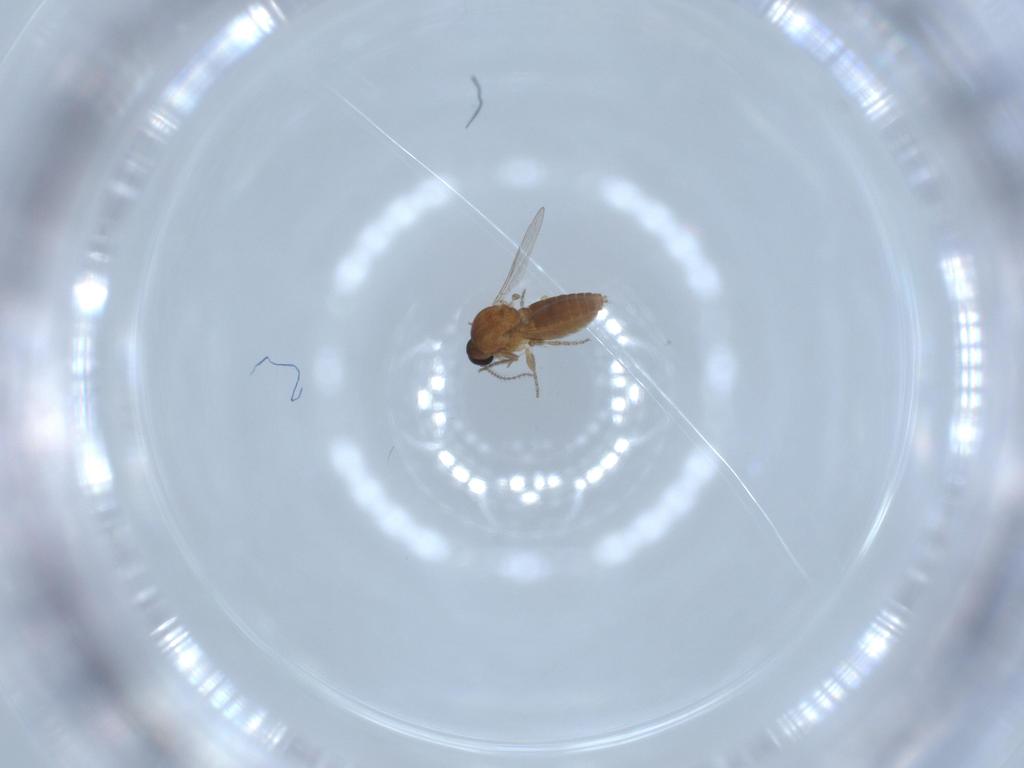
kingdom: Animalia
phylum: Arthropoda
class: Insecta
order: Diptera
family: Ceratopogonidae
